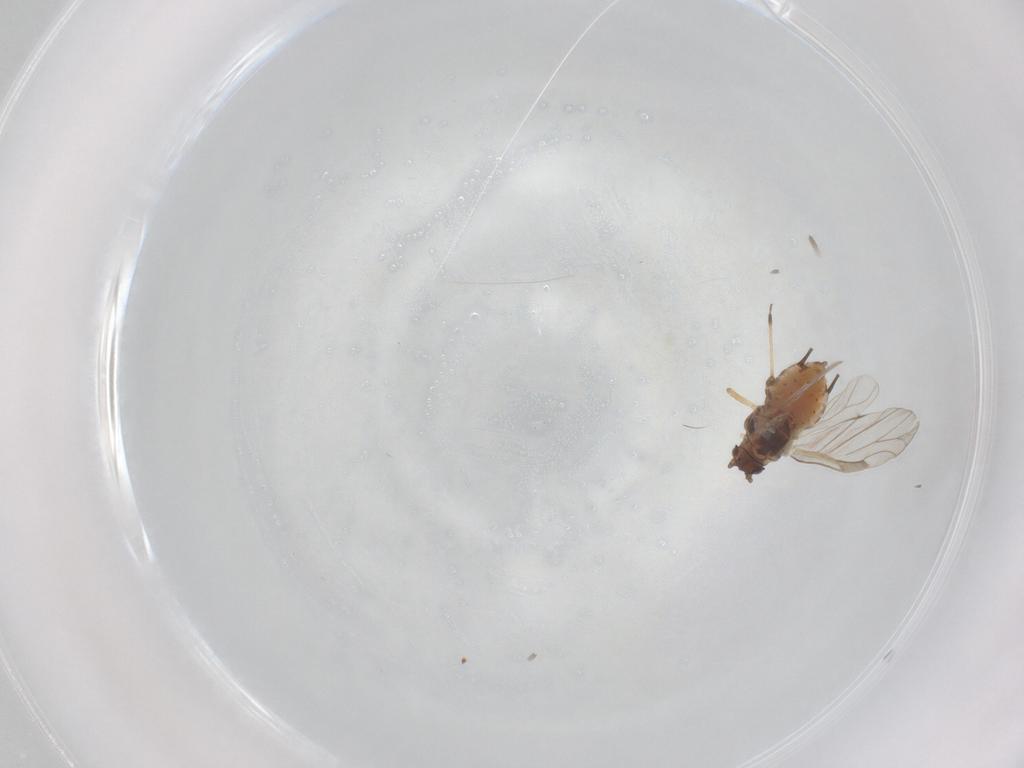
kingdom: Animalia
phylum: Arthropoda
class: Insecta
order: Hemiptera
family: Aphididae
